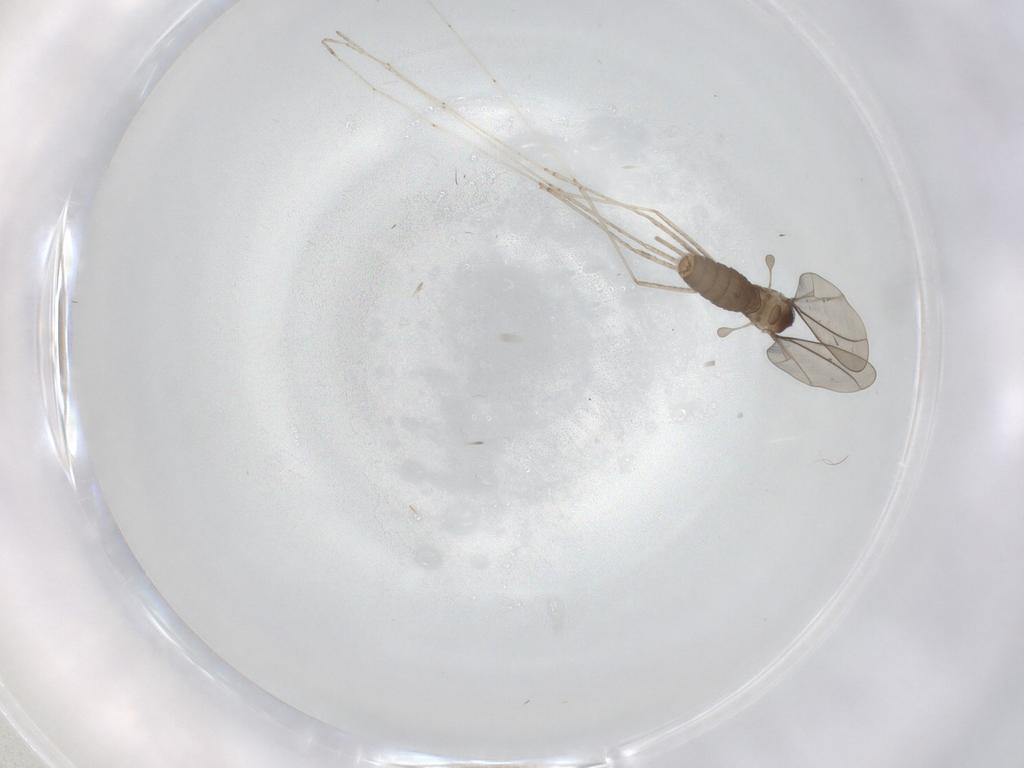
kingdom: Animalia
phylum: Arthropoda
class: Insecta
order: Diptera
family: Cecidomyiidae
